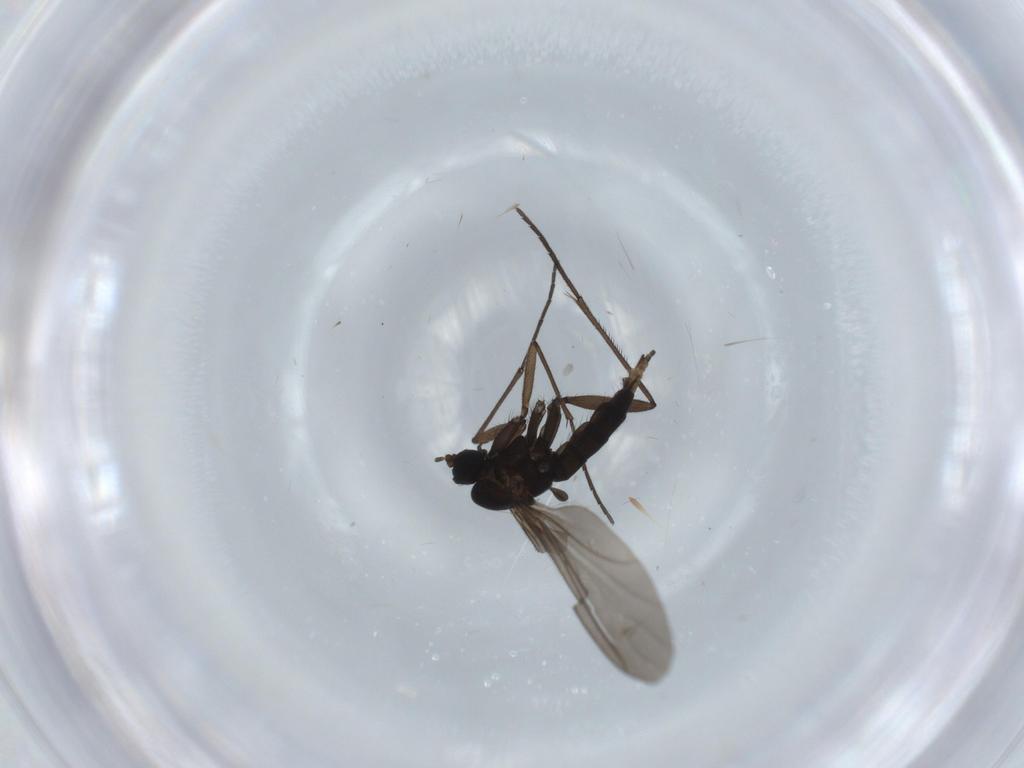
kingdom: Animalia
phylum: Arthropoda
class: Insecta
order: Diptera
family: Sciaridae
